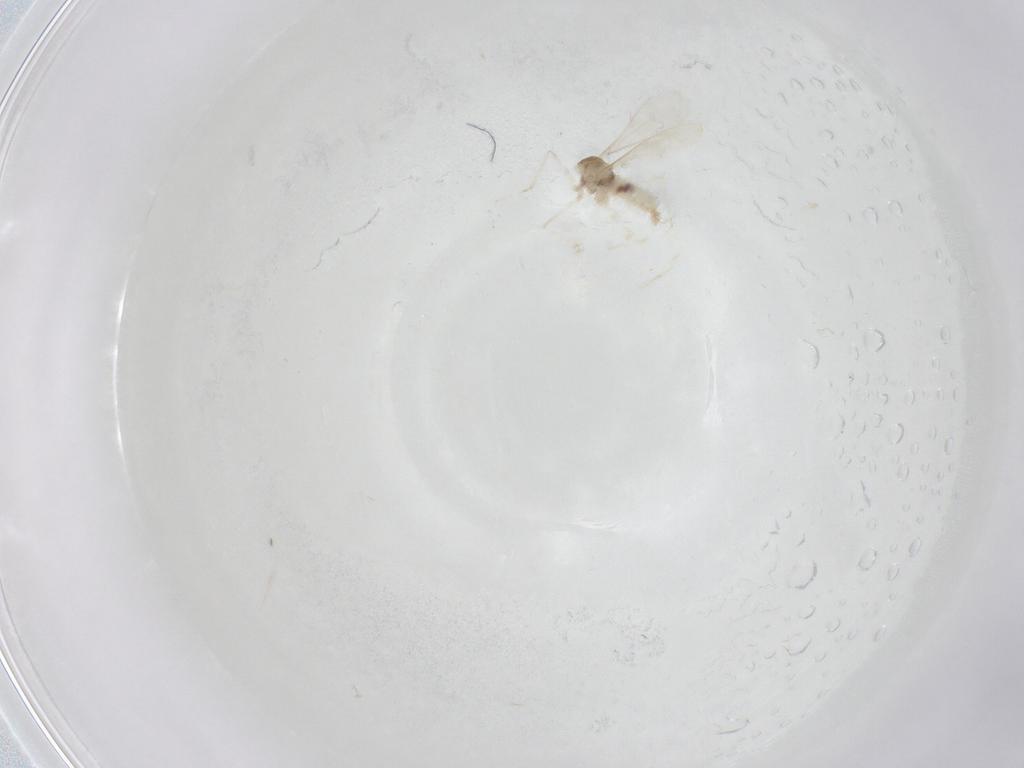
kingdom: Animalia
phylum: Arthropoda
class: Insecta
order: Diptera
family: Cecidomyiidae
